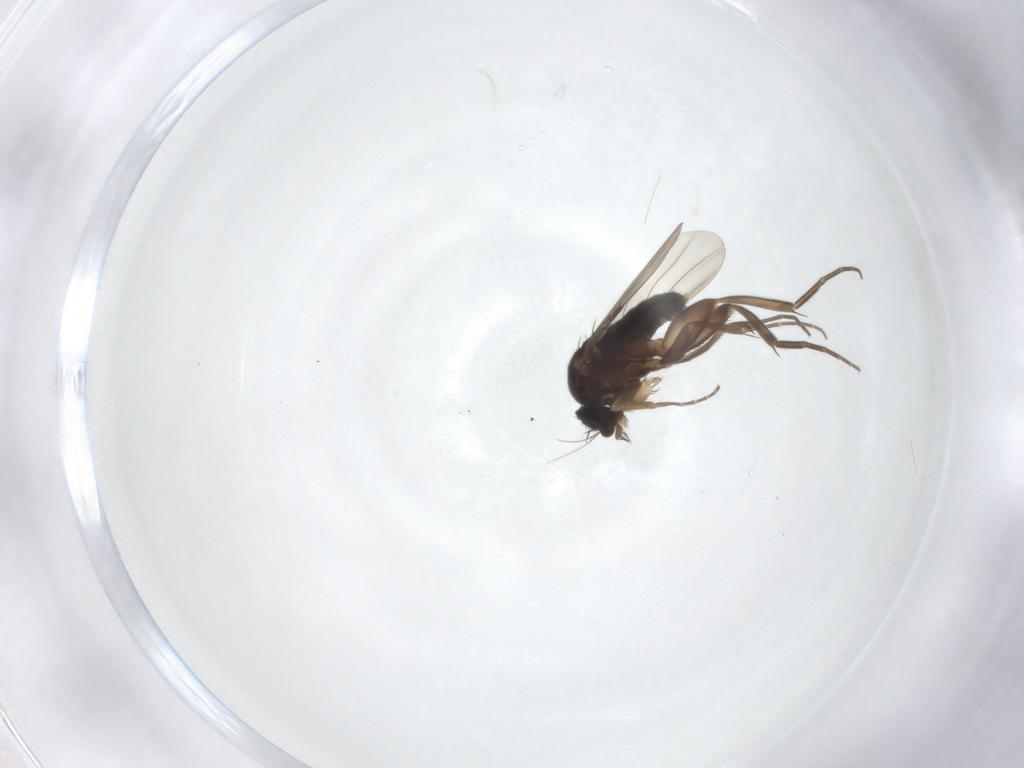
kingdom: Animalia
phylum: Arthropoda
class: Insecta
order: Diptera
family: Phoridae
